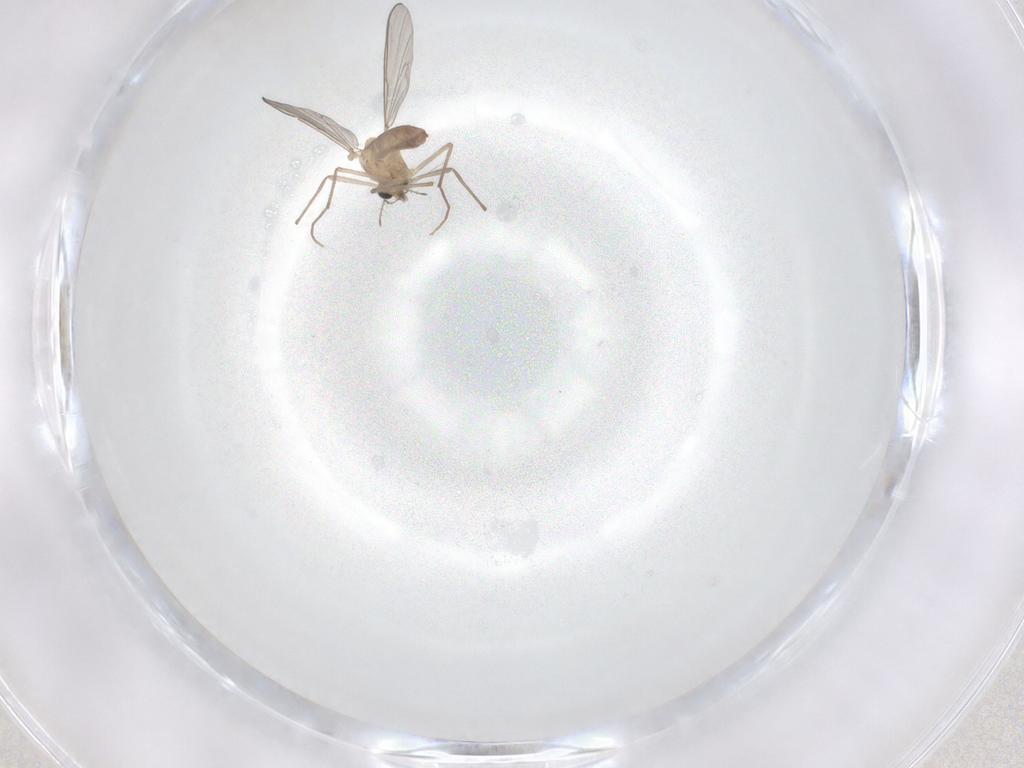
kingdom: Animalia
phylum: Arthropoda
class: Insecta
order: Diptera
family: Chironomidae
